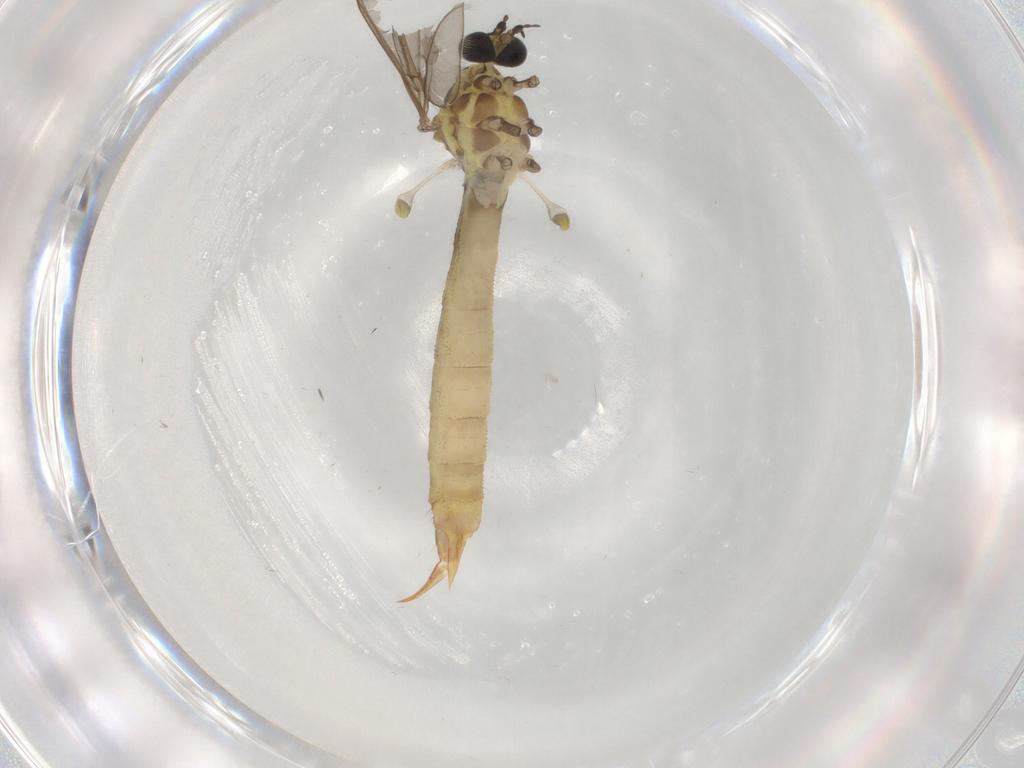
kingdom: Animalia
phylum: Arthropoda
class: Insecta
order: Diptera
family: Limoniidae
